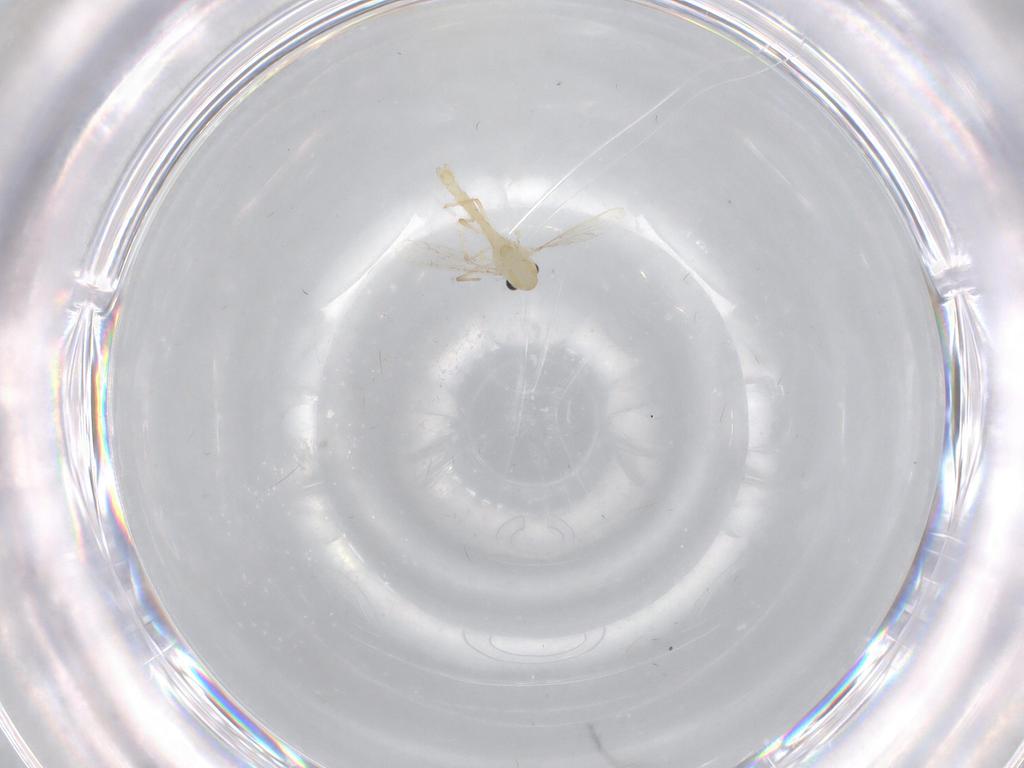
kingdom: Animalia
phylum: Arthropoda
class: Insecta
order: Diptera
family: Chironomidae
